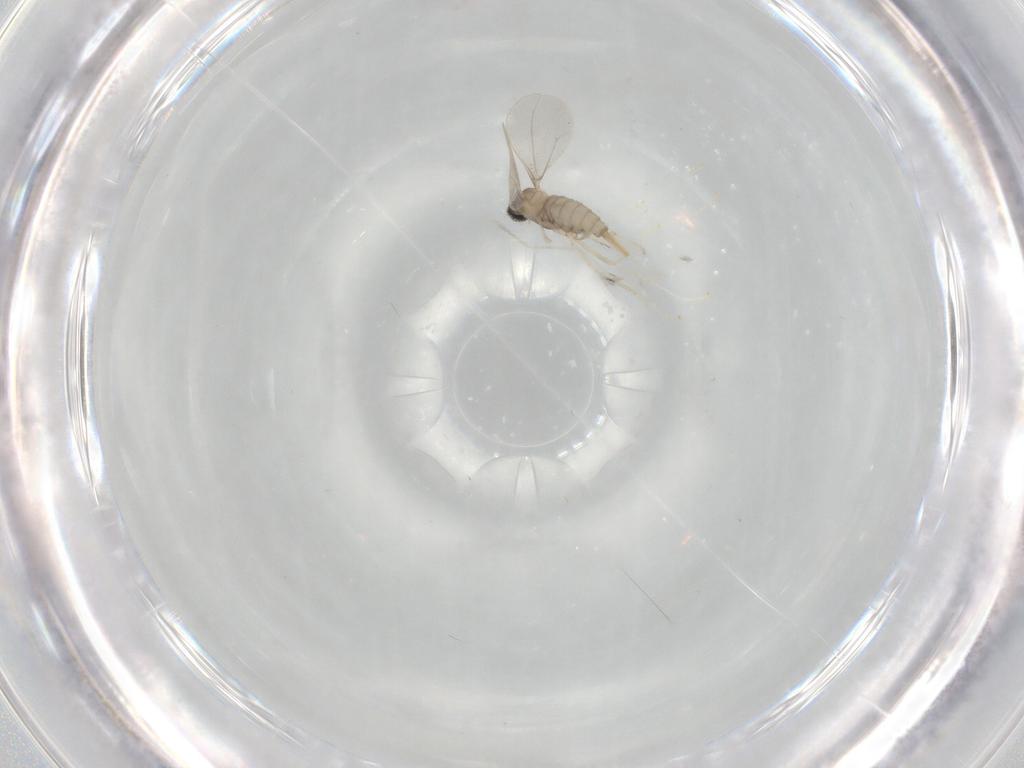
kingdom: Animalia
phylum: Arthropoda
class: Insecta
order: Diptera
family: Cecidomyiidae
